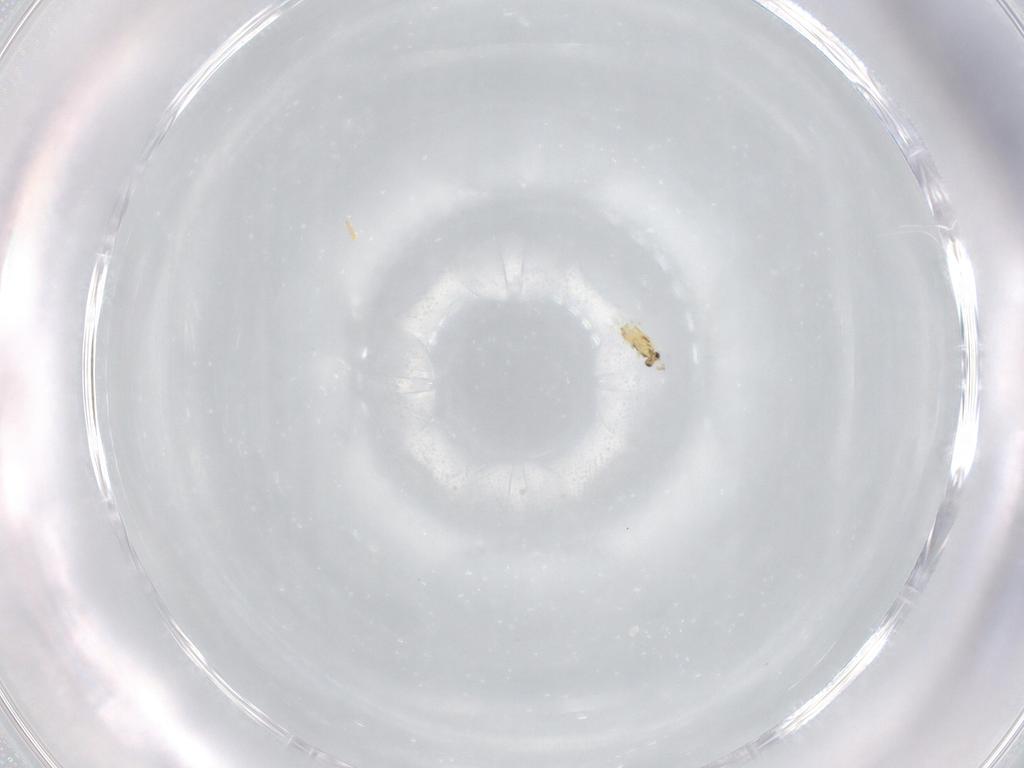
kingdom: Animalia
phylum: Arthropoda
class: Insecta
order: Hymenoptera
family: Trichogrammatidae
